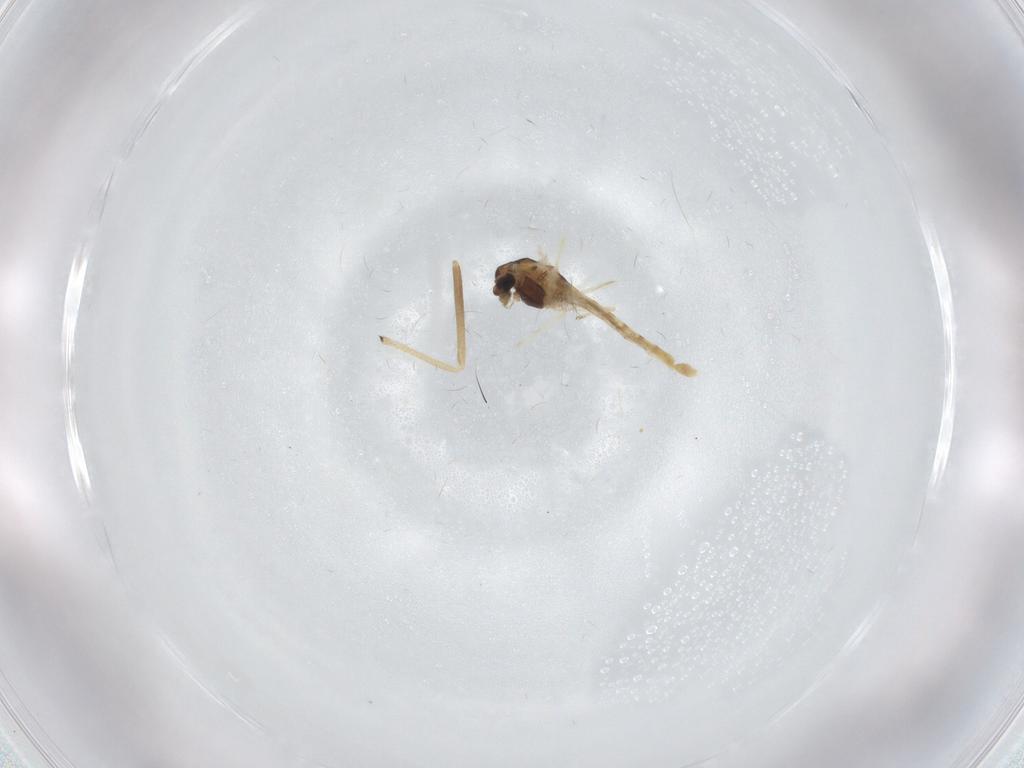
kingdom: Animalia
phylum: Arthropoda
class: Insecta
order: Diptera
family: Chironomidae
